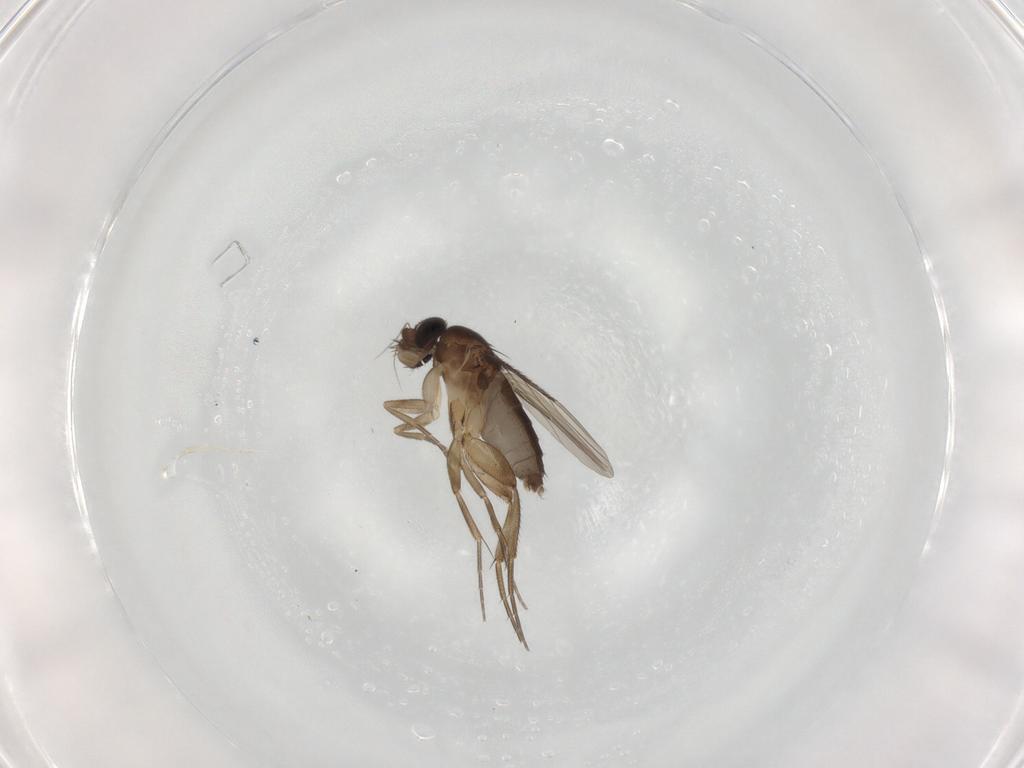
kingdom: Animalia
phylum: Arthropoda
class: Insecta
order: Diptera
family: Phoridae
